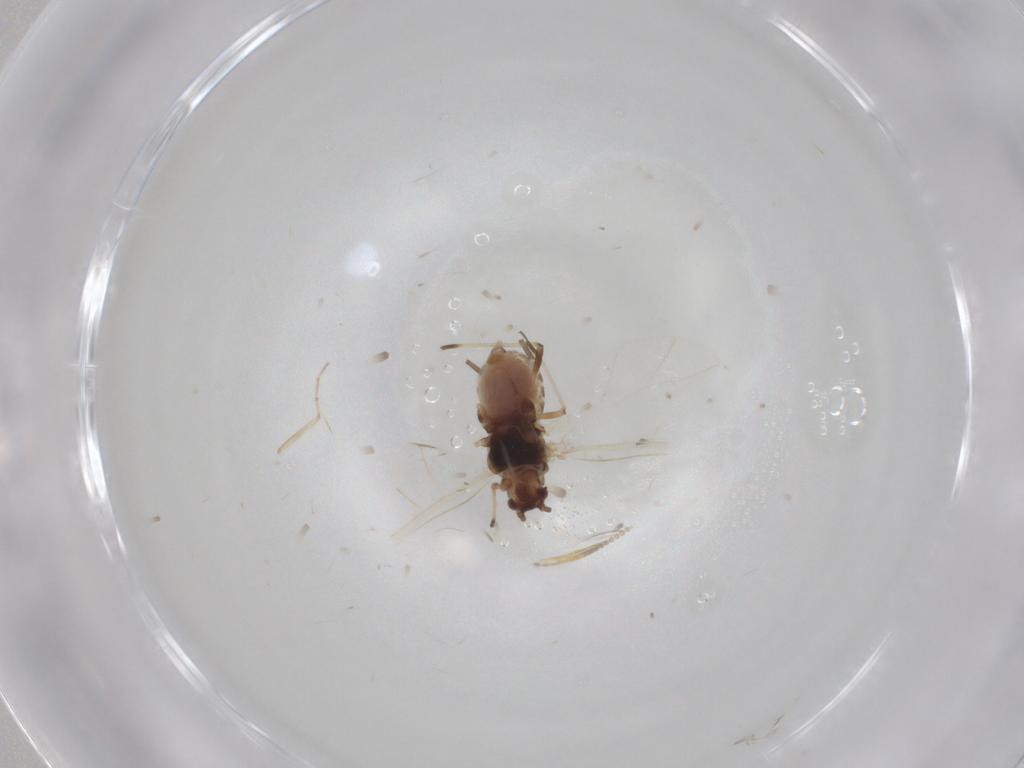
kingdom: Animalia
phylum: Arthropoda
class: Insecta
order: Hemiptera
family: Aphididae
